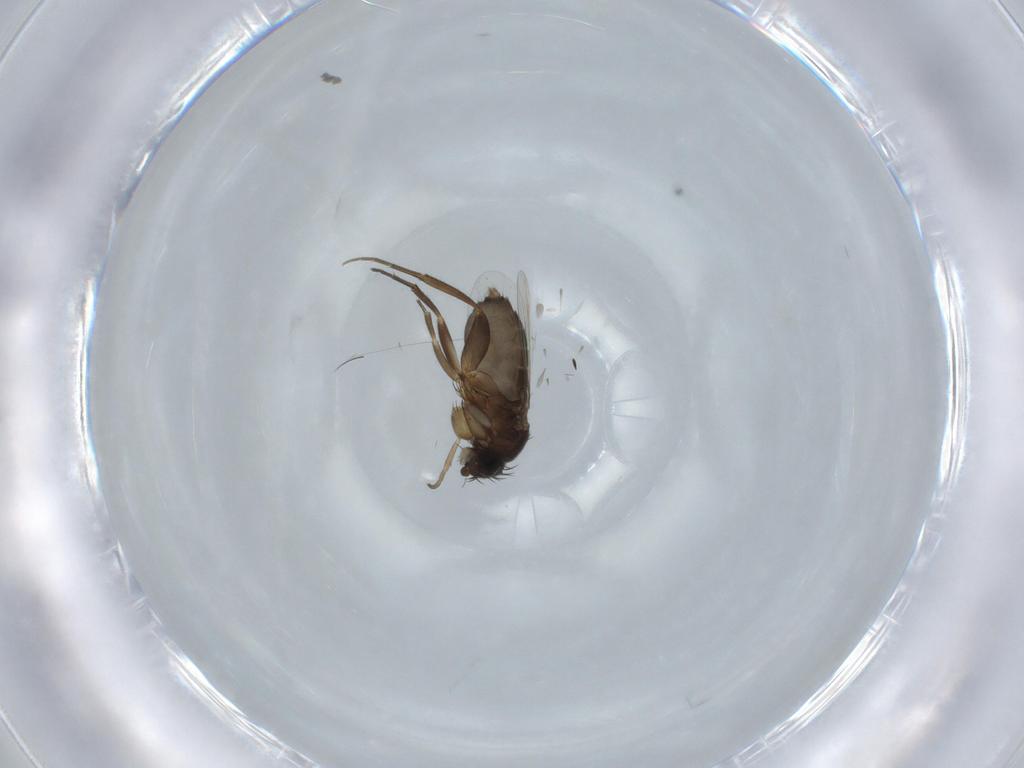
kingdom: Animalia
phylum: Arthropoda
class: Insecta
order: Diptera
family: Phoridae
